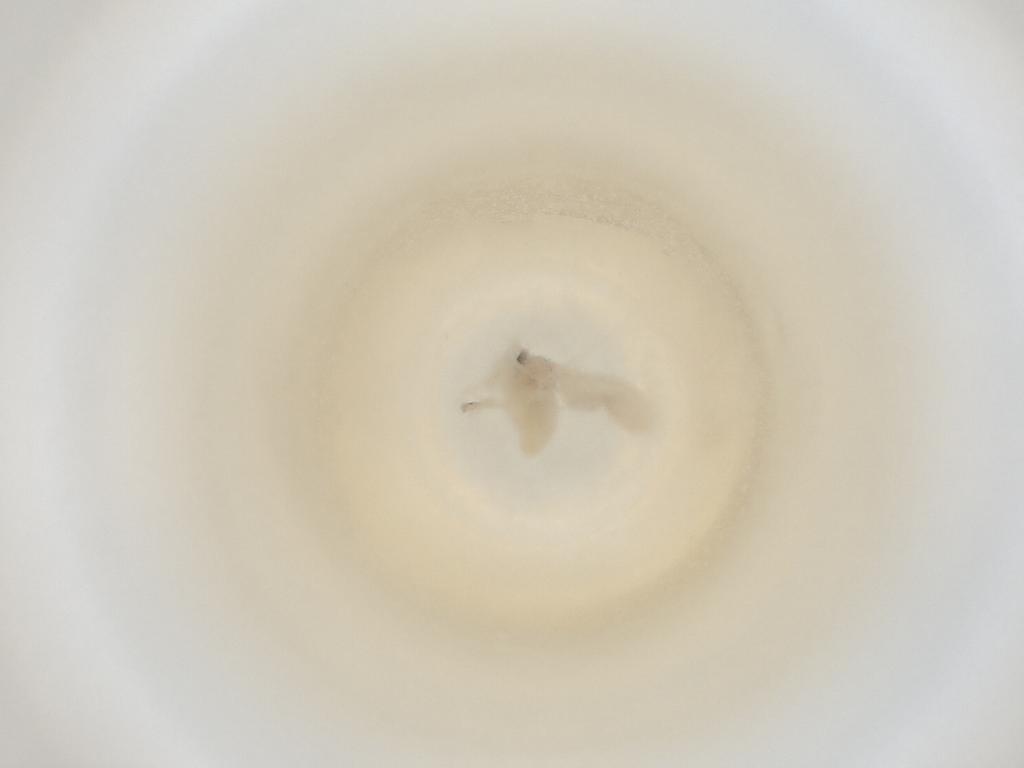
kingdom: Animalia
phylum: Arthropoda
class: Insecta
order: Diptera
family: Cecidomyiidae
